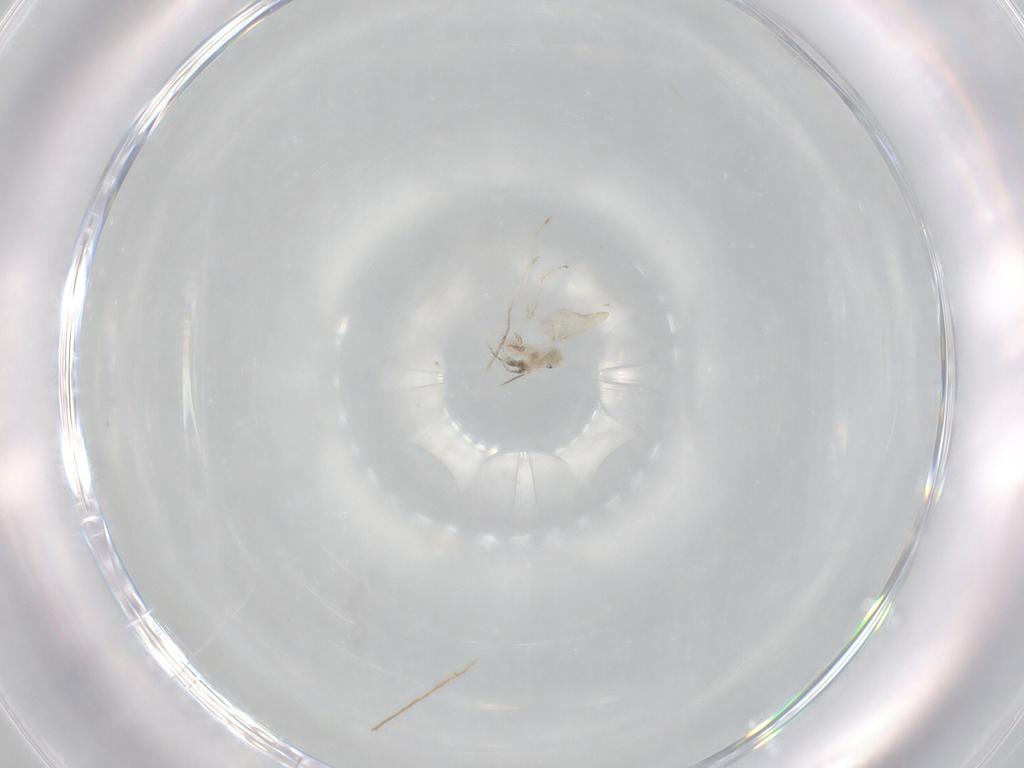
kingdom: Animalia
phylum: Arthropoda
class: Insecta
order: Diptera
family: Cecidomyiidae
